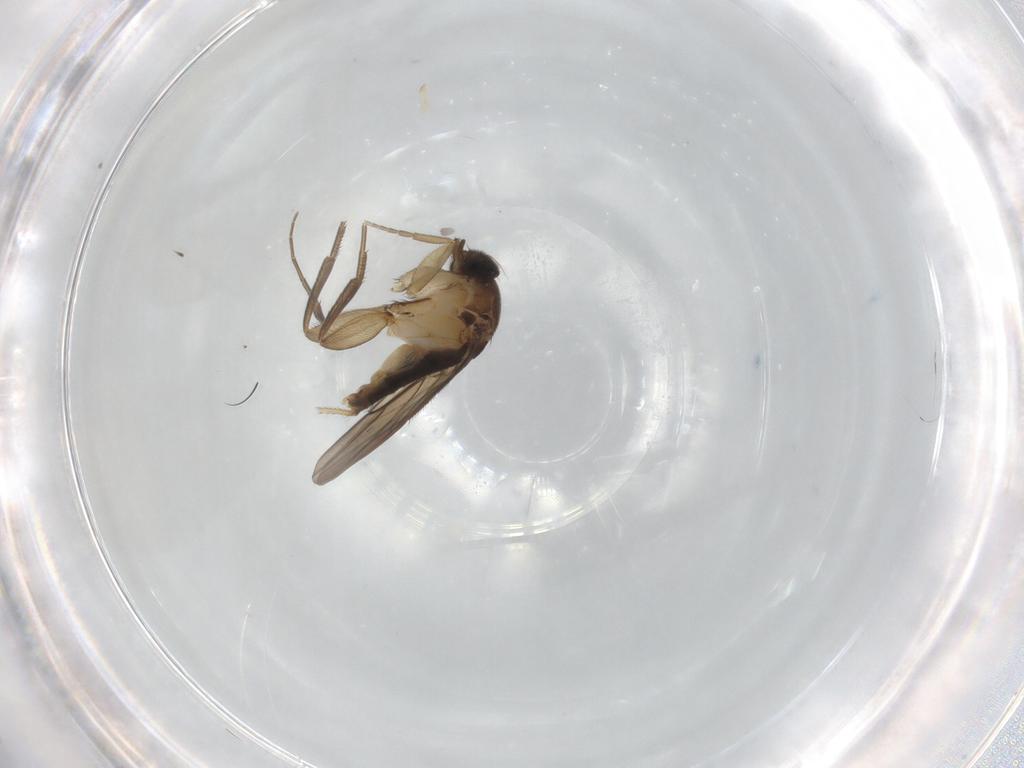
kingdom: Animalia
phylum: Arthropoda
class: Insecta
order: Diptera
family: Phoridae
